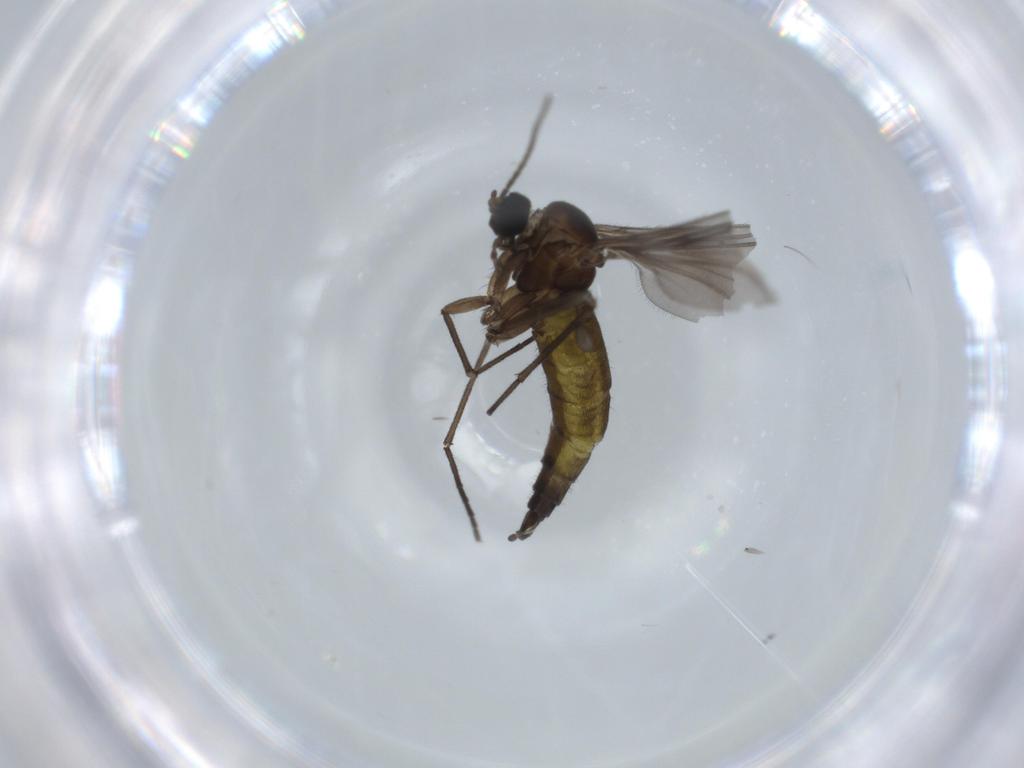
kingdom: Animalia
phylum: Arthropoda
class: Insecta
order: Diptera
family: Sciaridae
